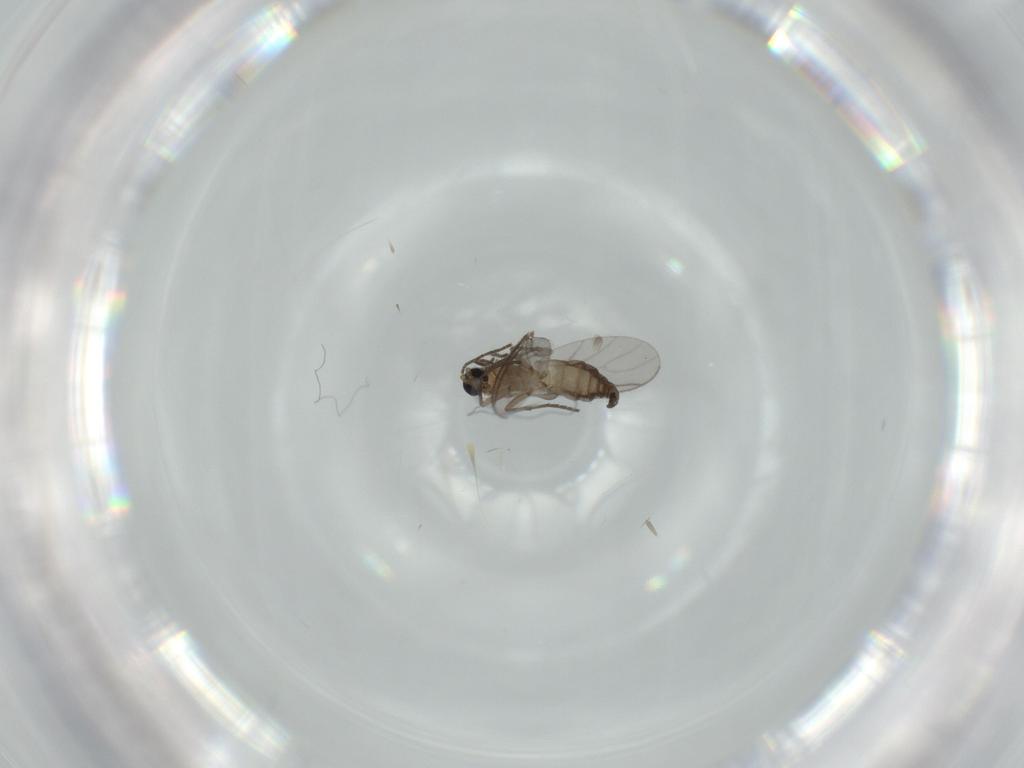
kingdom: Animalia
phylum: Arthropoda
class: Insecta
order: Diptera
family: Sciaridae
